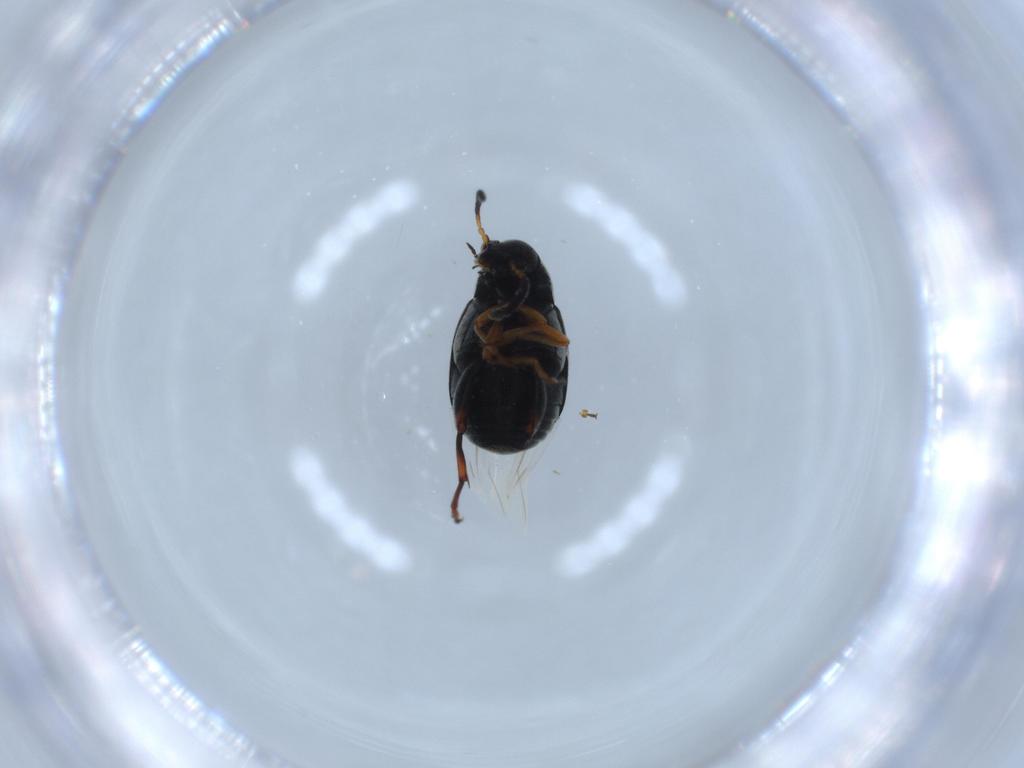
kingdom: Animalia
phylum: Arthropoda
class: Insecta
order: Coleoptera
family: Chrysomelidae
